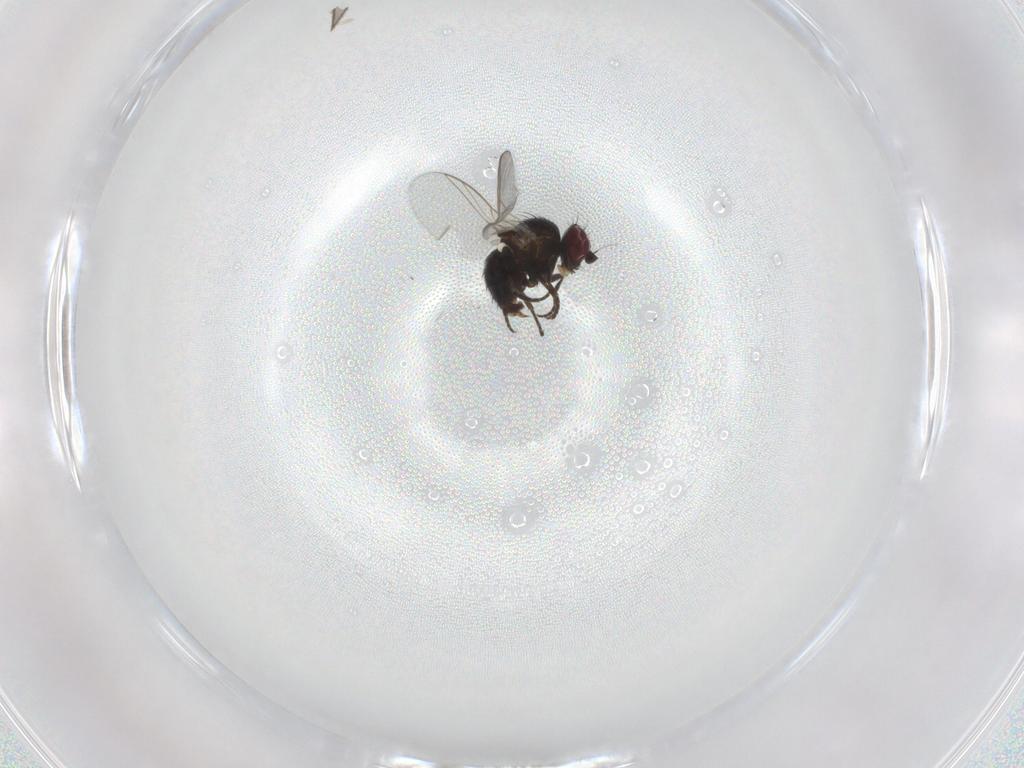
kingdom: Animalia
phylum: Arthropoda
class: Insecta
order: Diptera
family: Agromyzidae
